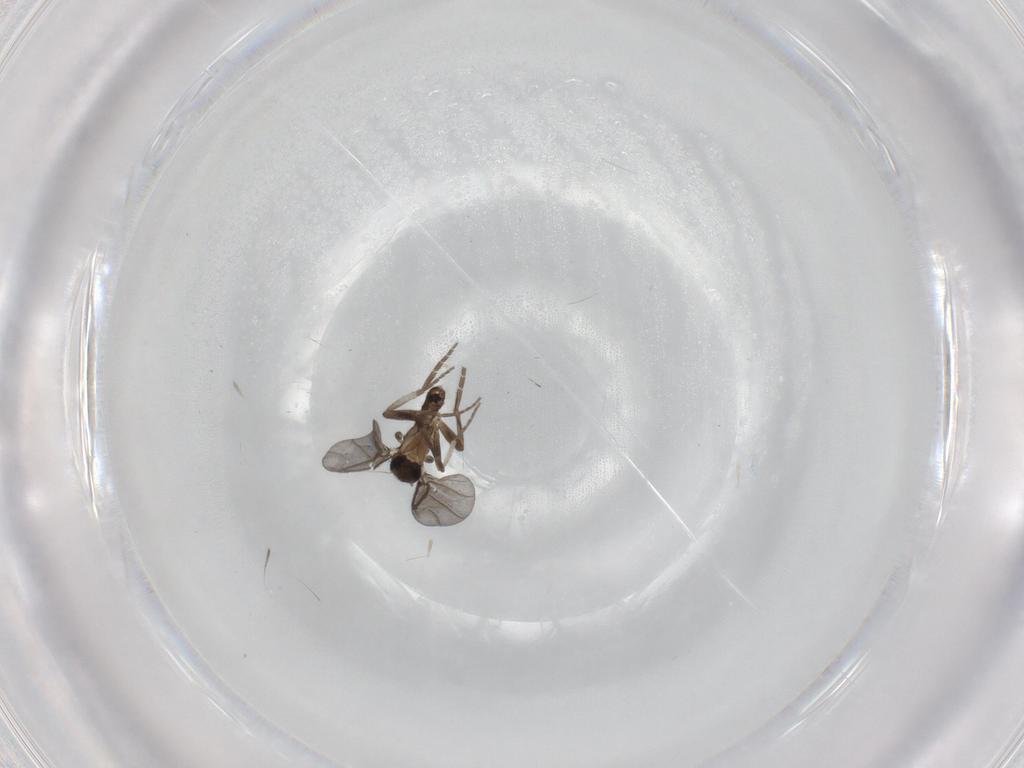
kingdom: Animalia
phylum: Arthropoda
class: Insecta
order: Diptera
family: Phoridae
